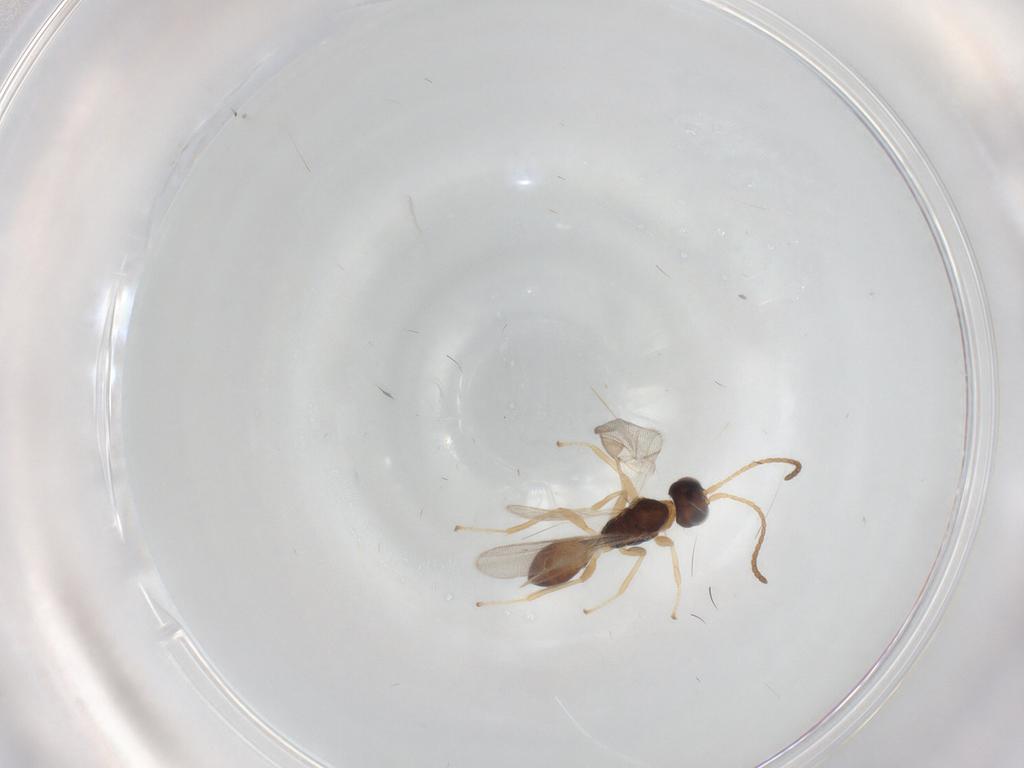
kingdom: Animalia
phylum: Arthropoda
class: Insecta
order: Hymenoptera
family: Braconidae
